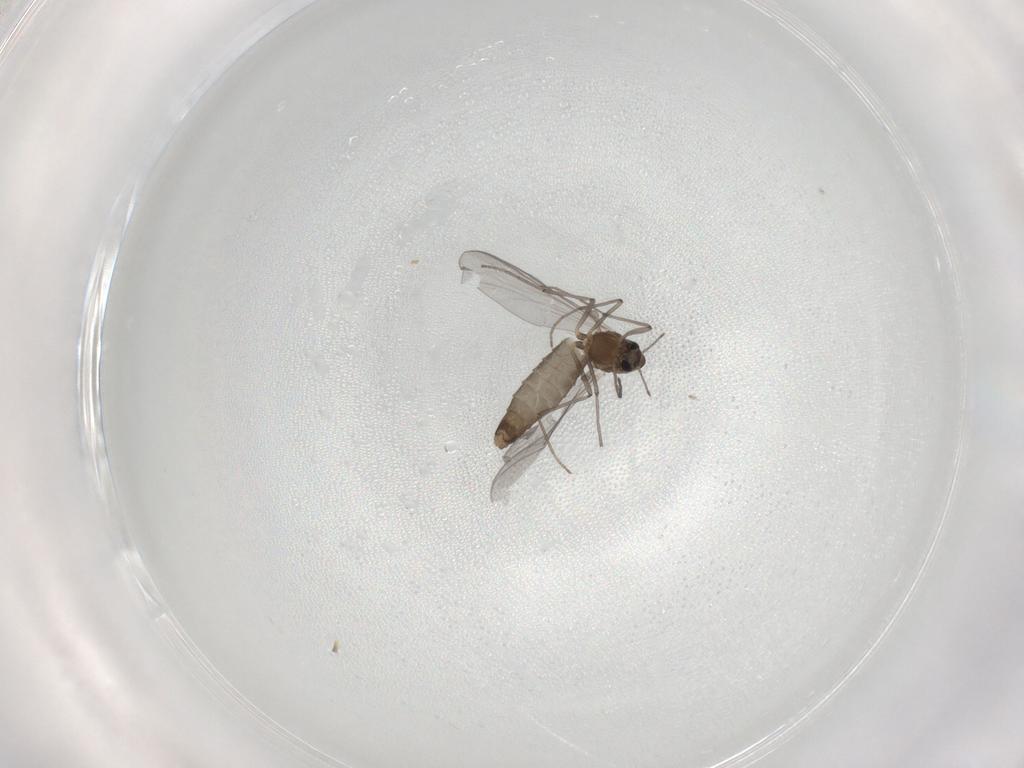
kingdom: Animalia
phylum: Arthropoda
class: Insecta
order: Diptera
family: Chironomidae
